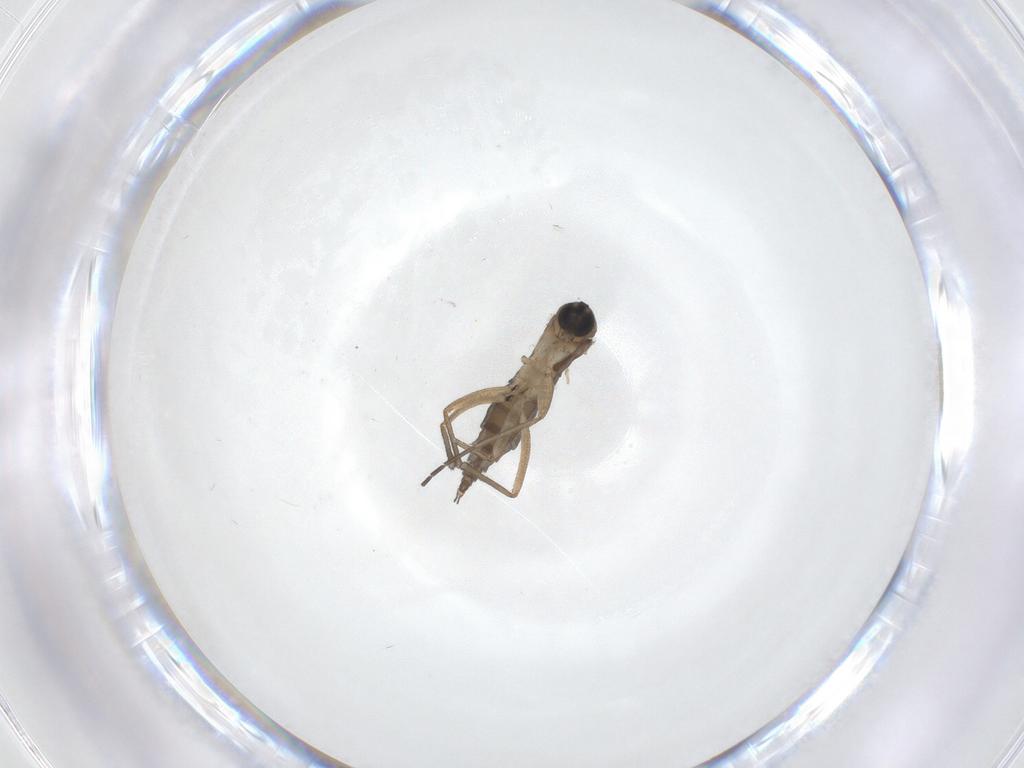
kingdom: Animalia
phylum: Arthropoda
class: Insecta
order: Diptera
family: Sciaridae
